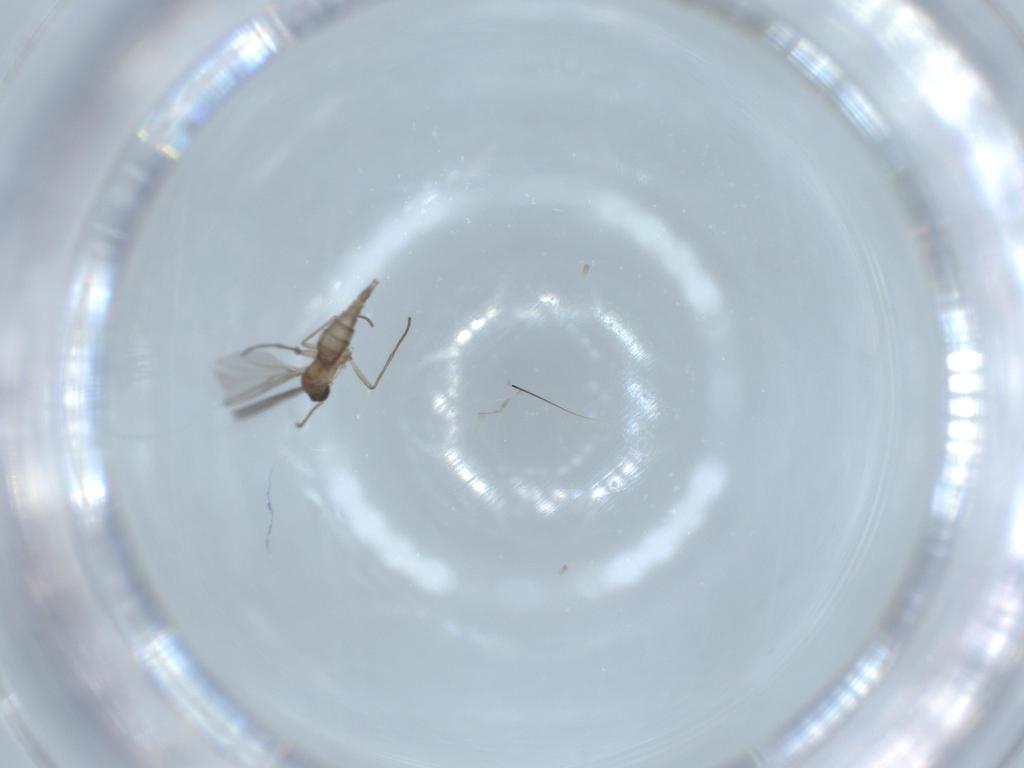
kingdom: Animalia
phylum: Arthropoda
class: Insecta
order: Diptera
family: Sciaridae
